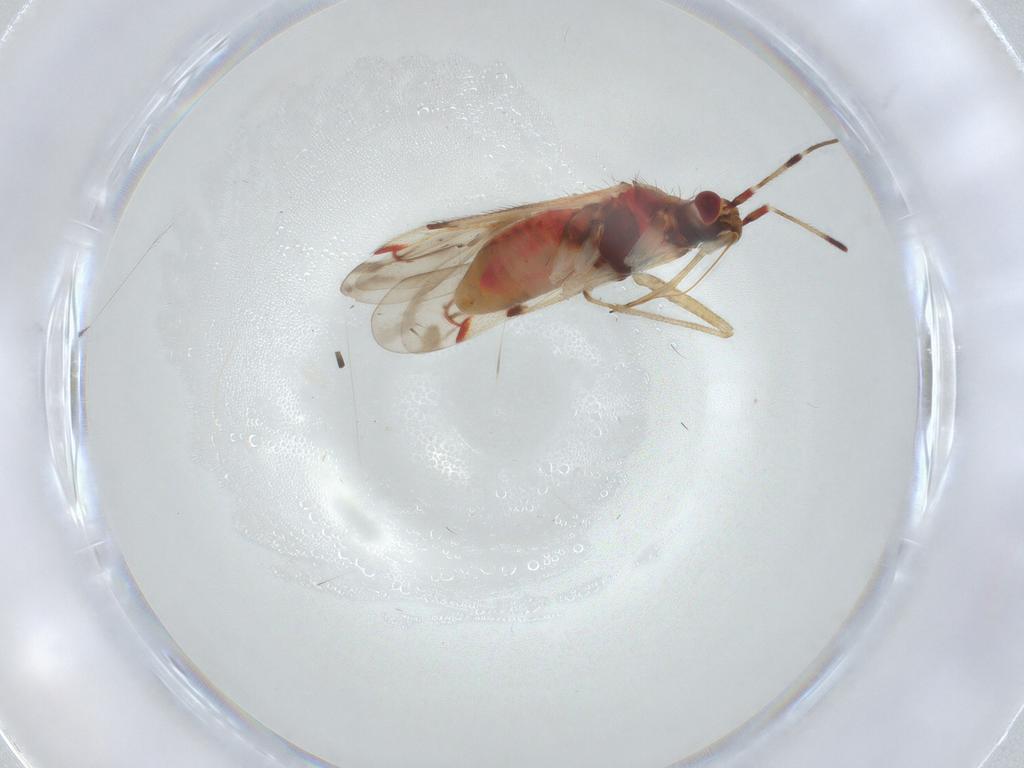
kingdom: Animalia
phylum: Arthropoda
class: Insecta
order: Hemiptera
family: Miridae
